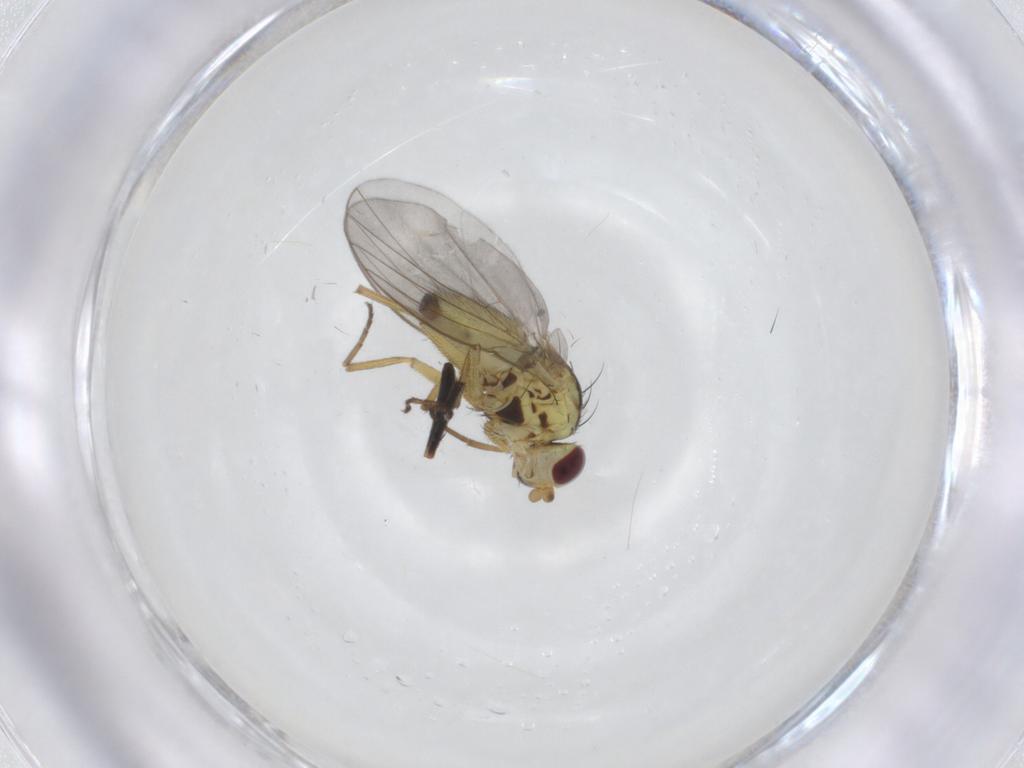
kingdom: Animalia
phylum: Arthropoda
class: Insecta
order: Diptera
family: Dolichopodidae
